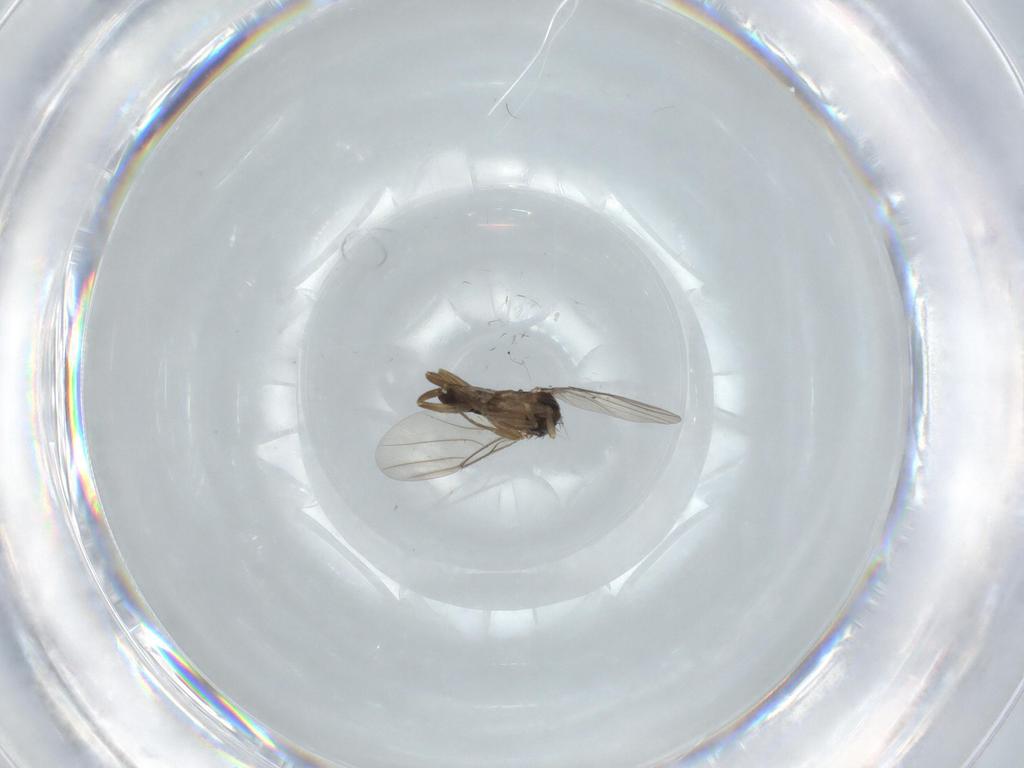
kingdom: Animalia
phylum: Arthropoda
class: Insecta
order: Diptera
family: Phoridae
